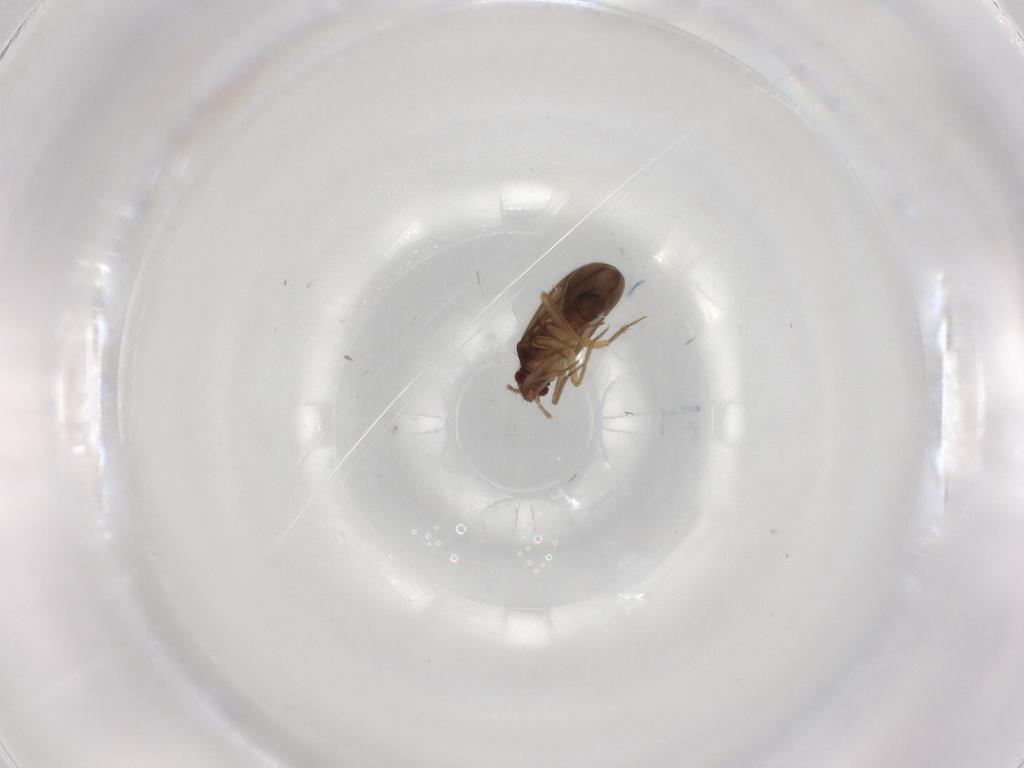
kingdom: Animalia
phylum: Arthropoda
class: Insecta
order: Hemiptera
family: Ceratocombidae
